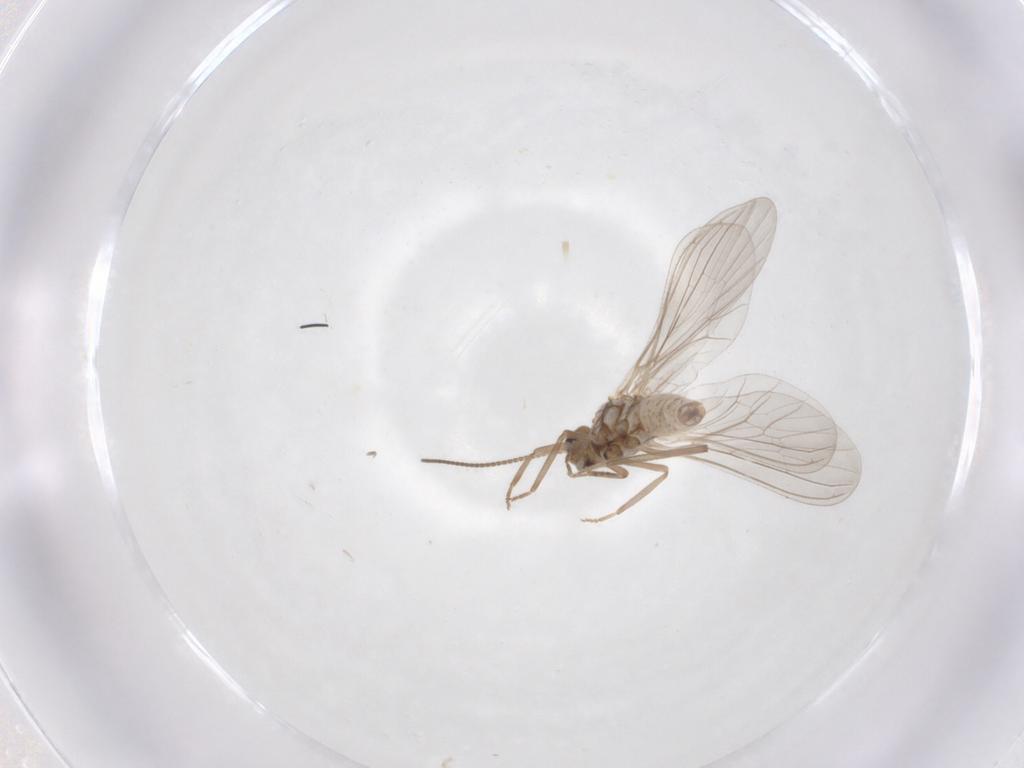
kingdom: Animalia
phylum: Arthropoda
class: Insecta
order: Neuroptera
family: Coniopterygidae
